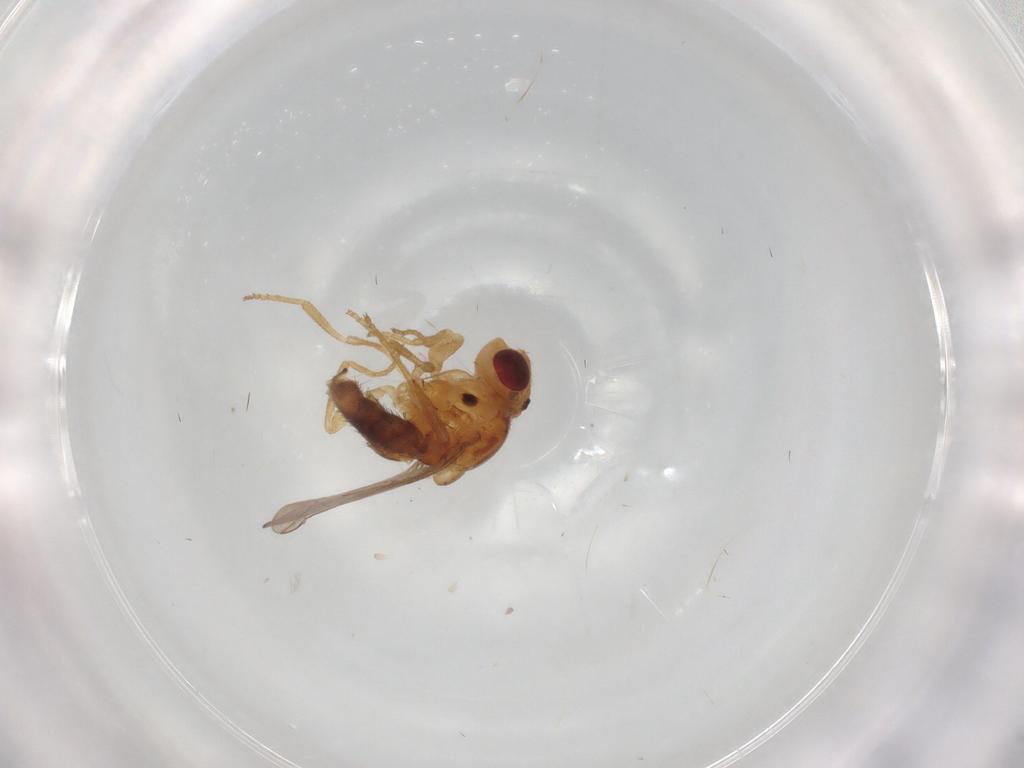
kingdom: Animalia
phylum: Arthropoda
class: Insecta
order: Diptera
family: Chloropidae
